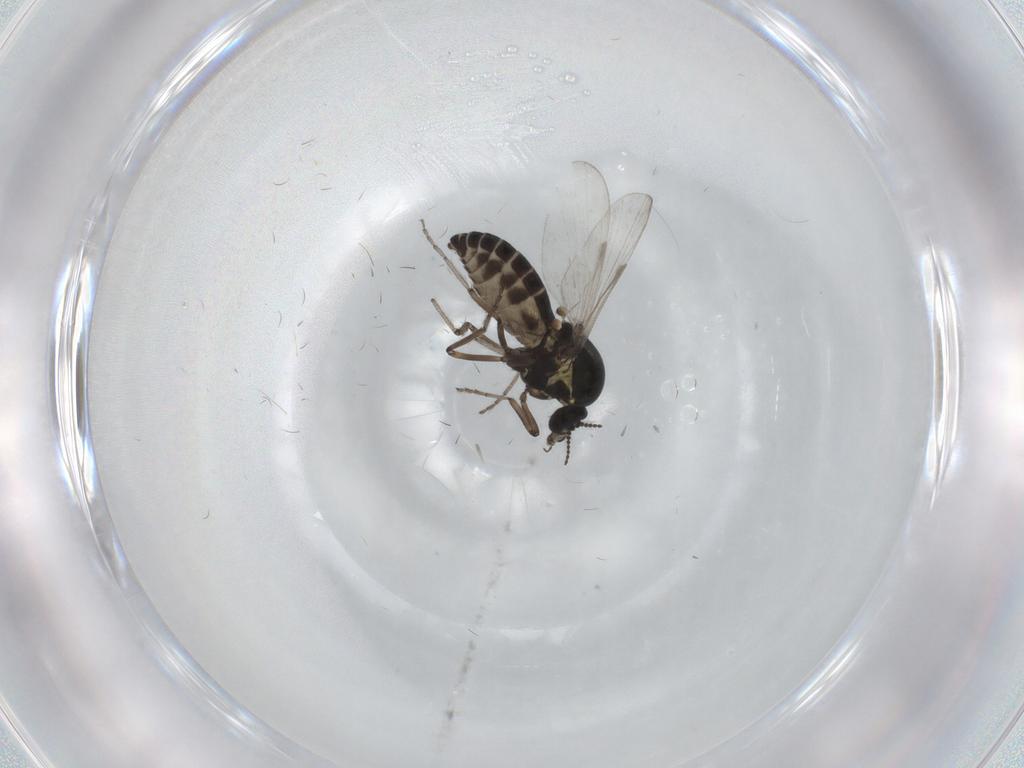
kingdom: Animalia
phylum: Arthropoda
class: Insecta
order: Diptera
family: Ceratopogonidae
